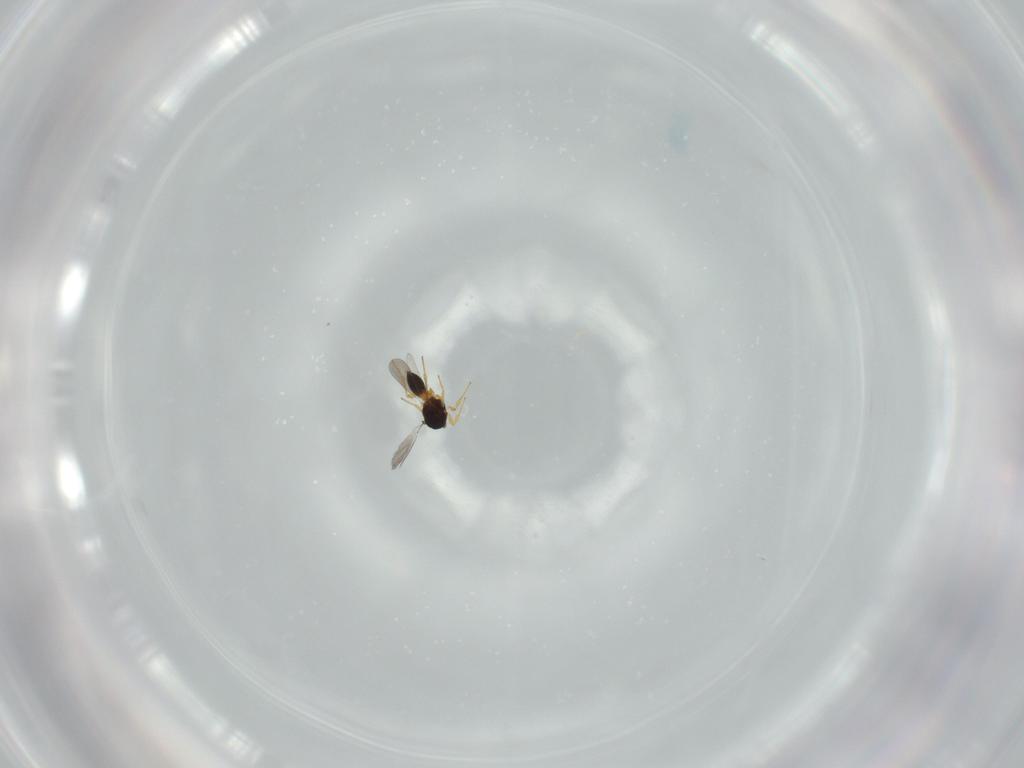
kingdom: Animalia
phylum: Arthropoda
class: Insecta
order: Hymenoptera
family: Platygastridae
